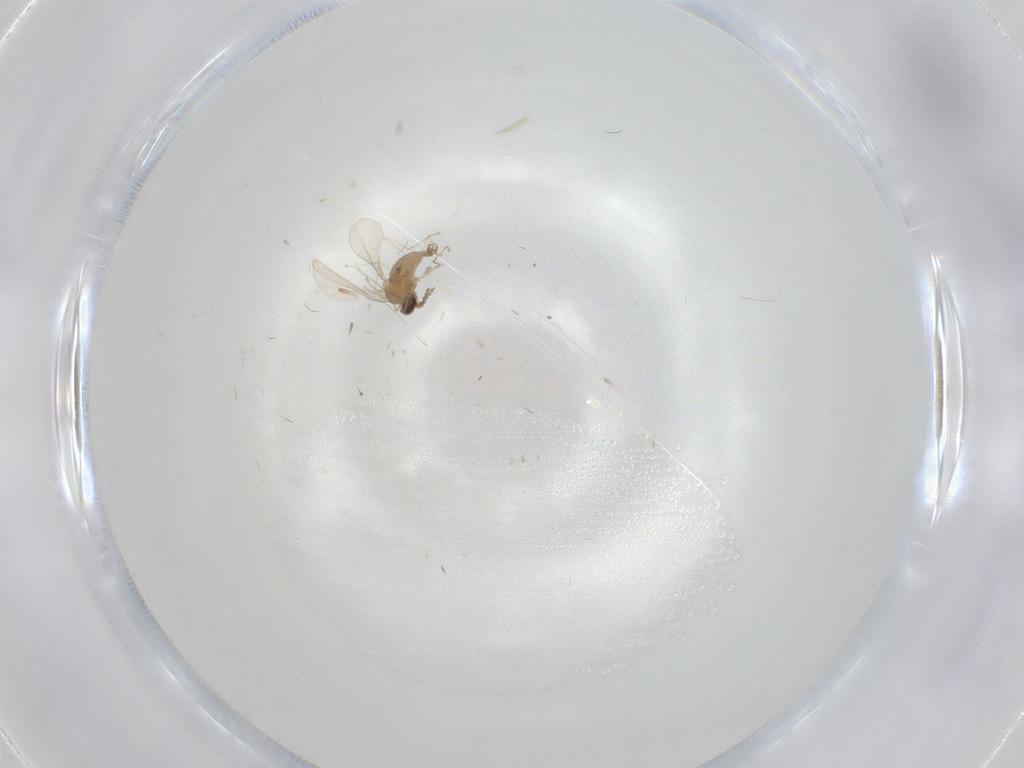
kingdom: Animalia
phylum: Arthropoda
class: Insecta
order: Diptera
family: Cecidomyiidae
